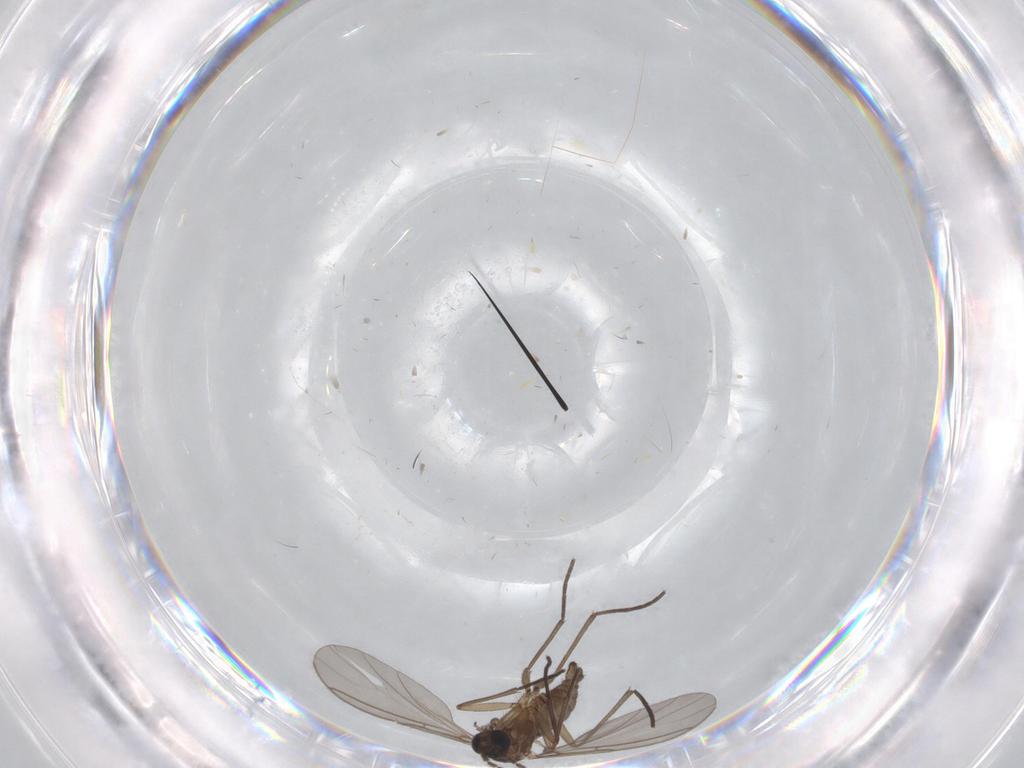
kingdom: Animalia
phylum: Arthropoda
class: Insecta
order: Diptera
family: Sciaridae
